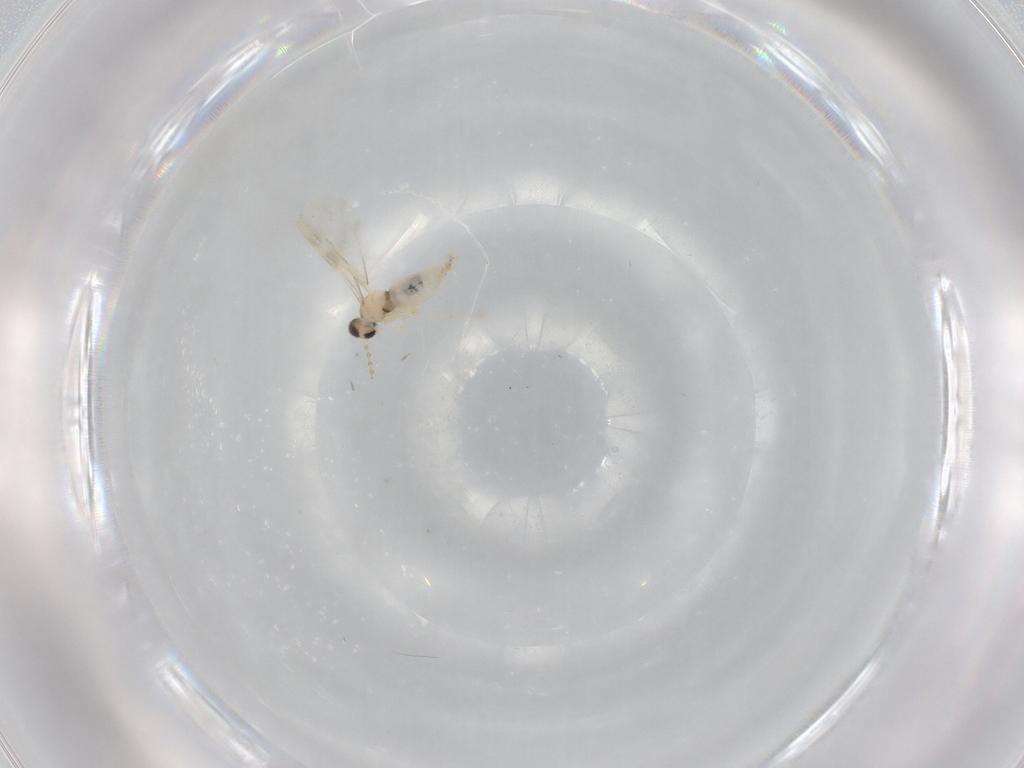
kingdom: Animalia
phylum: Arthropoda
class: Insecta
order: Diptera
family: Cecidomyiidae
